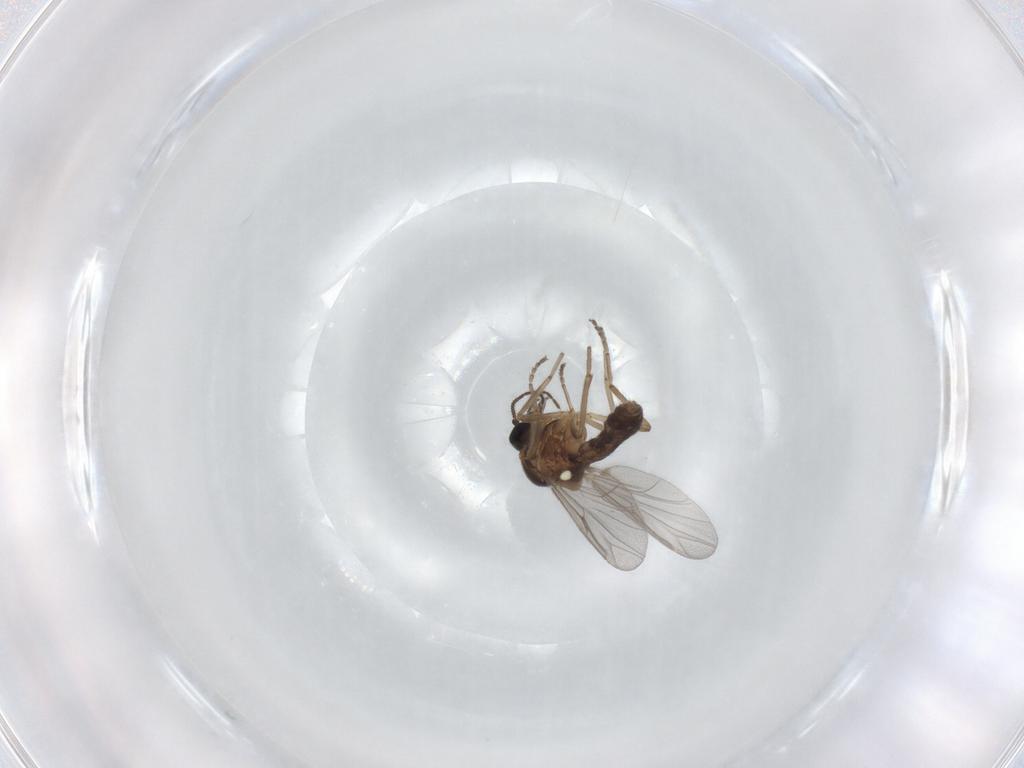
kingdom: Animalia
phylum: Arthropoda
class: Insecta
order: Diptera
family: Ceratopogonidae
